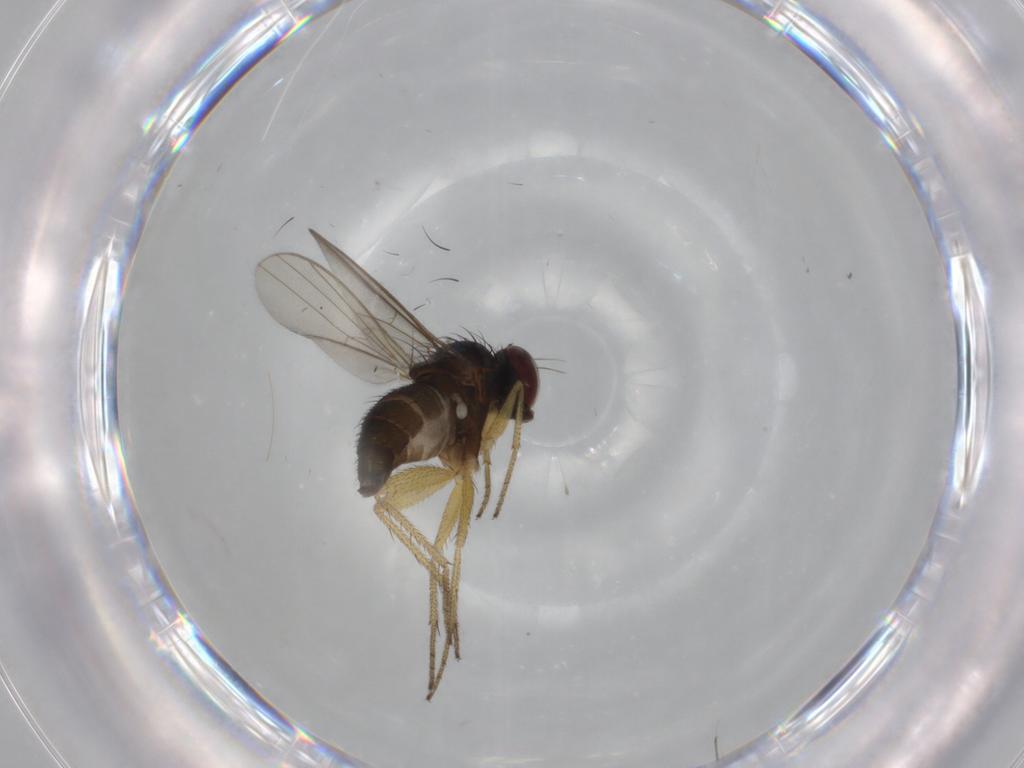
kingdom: Animalia
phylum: Arthropoda
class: Insecta
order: Diptera
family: Dolichopodidae
